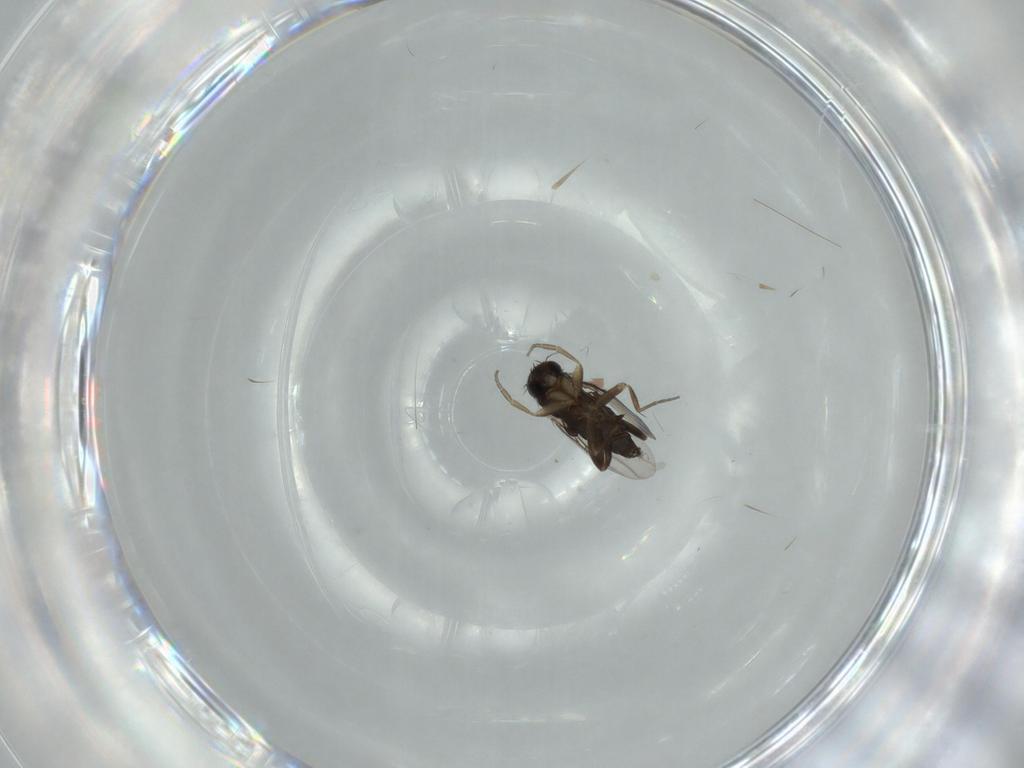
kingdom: Animalia
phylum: Arthropoda
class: Insecta
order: Diptera
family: Phoridae
